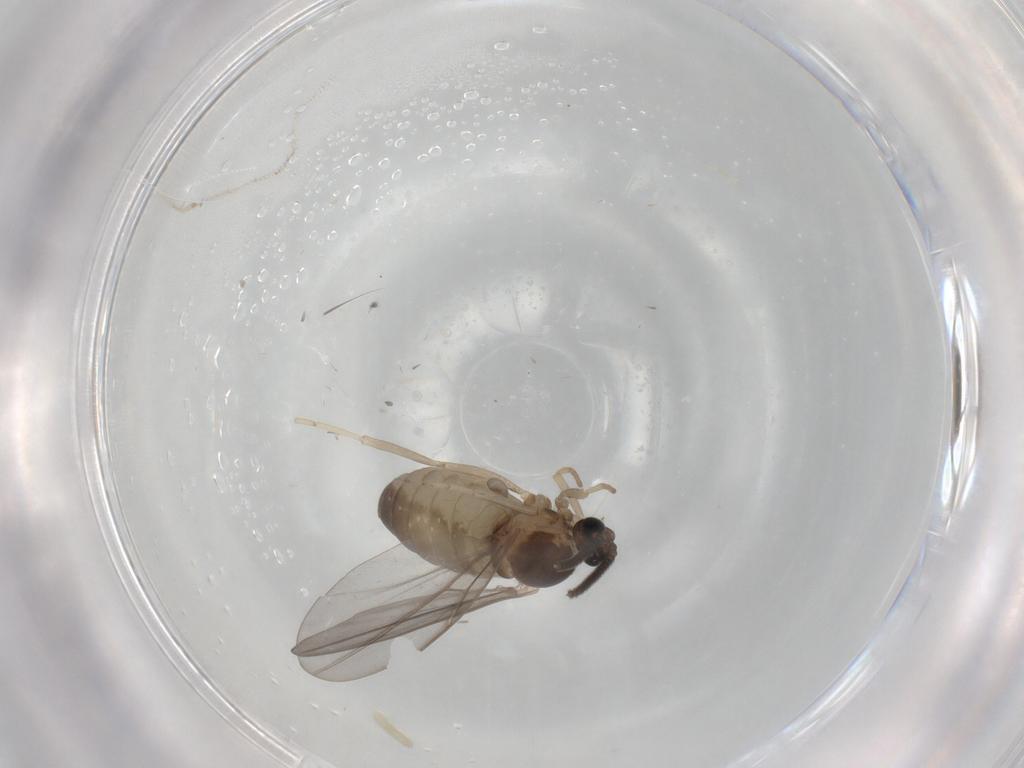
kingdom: Animalia
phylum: Arthropoda
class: Insecta
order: Diptera
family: Cecidomyiidae
